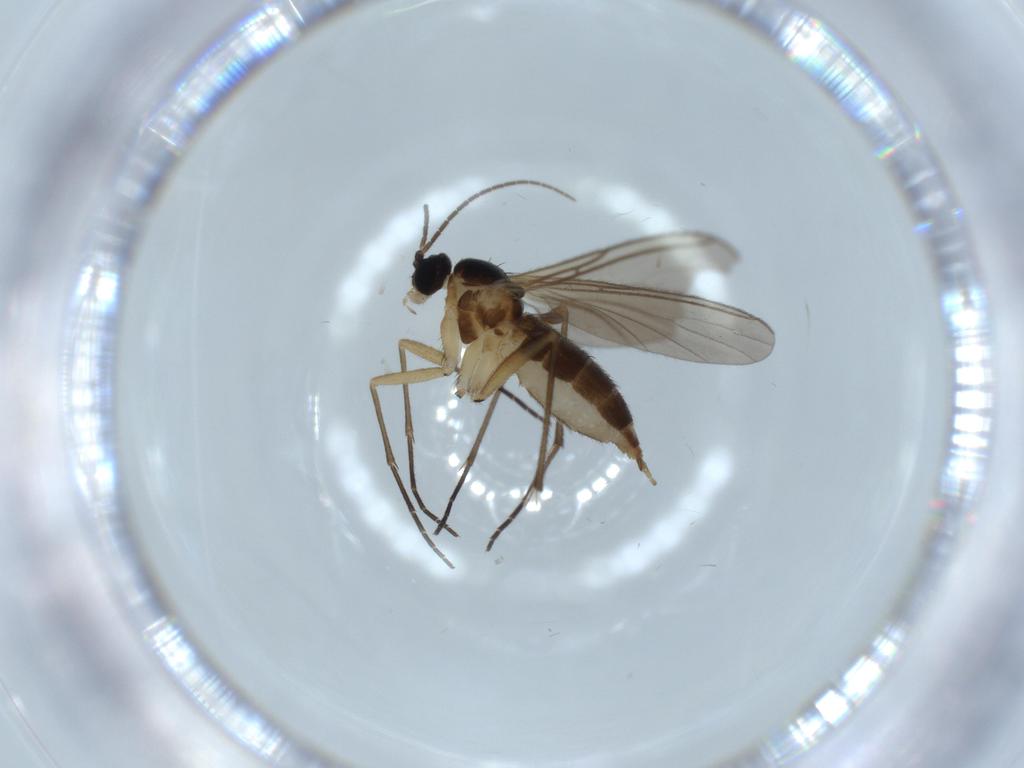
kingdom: Animalia
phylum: Arthropoda
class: Insecta
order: Diptera
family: Sciaridae
